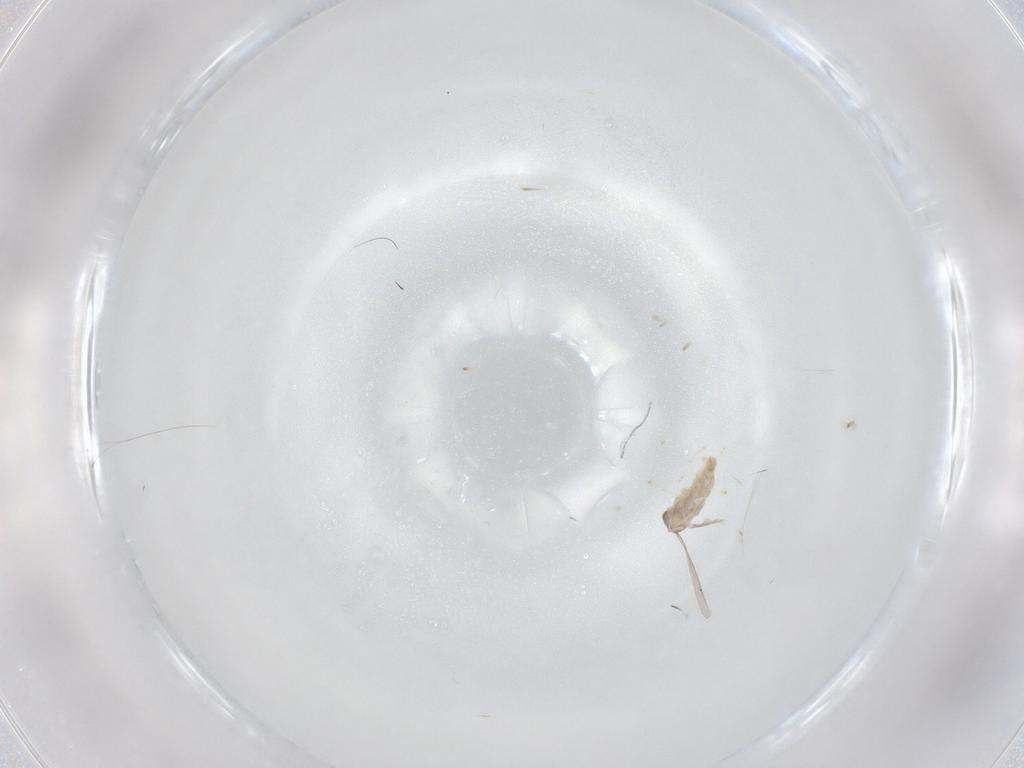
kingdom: Animalia
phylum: Arthropoda
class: Insecta
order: Diptera
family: Cecidomyiidae
